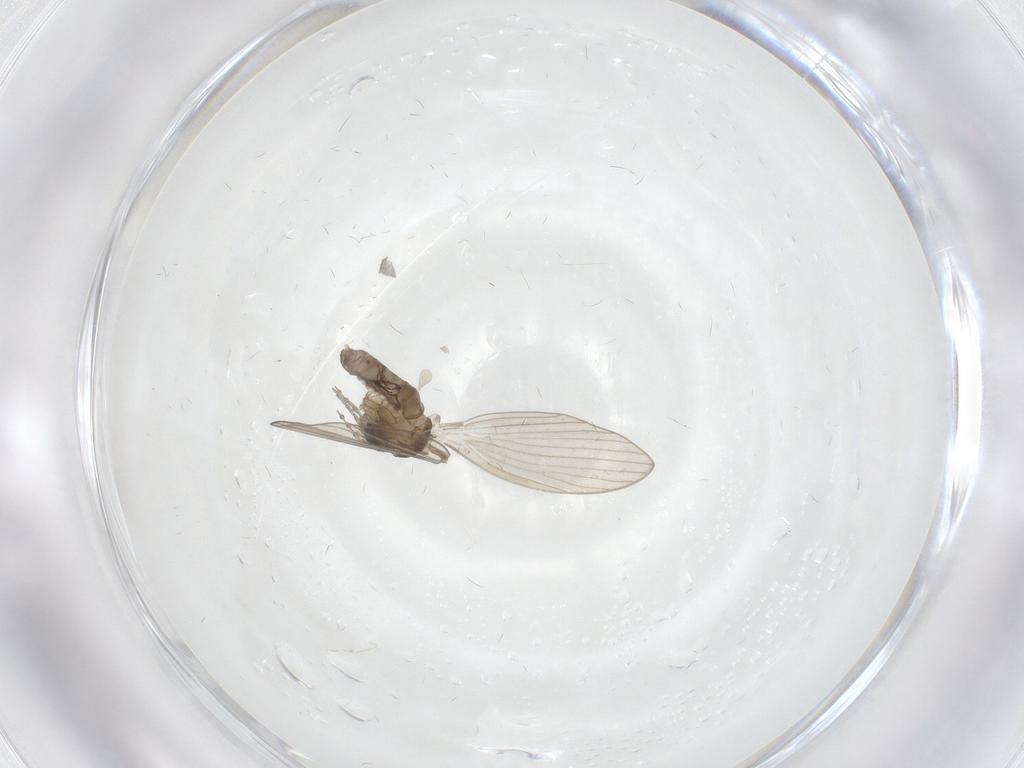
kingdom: Animalia
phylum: Arthropoda
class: Insecta
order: Diptera
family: Psychodidae
